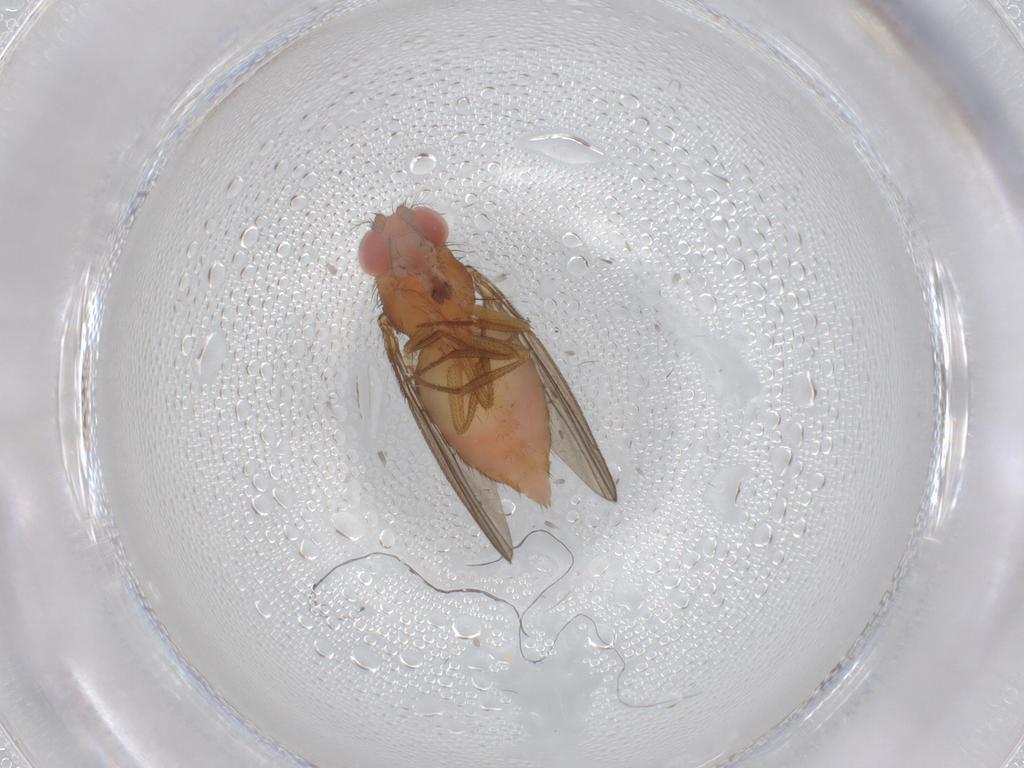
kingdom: Animalia
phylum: Arthropoda
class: Insecta
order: Diptera
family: Drosophilidae
